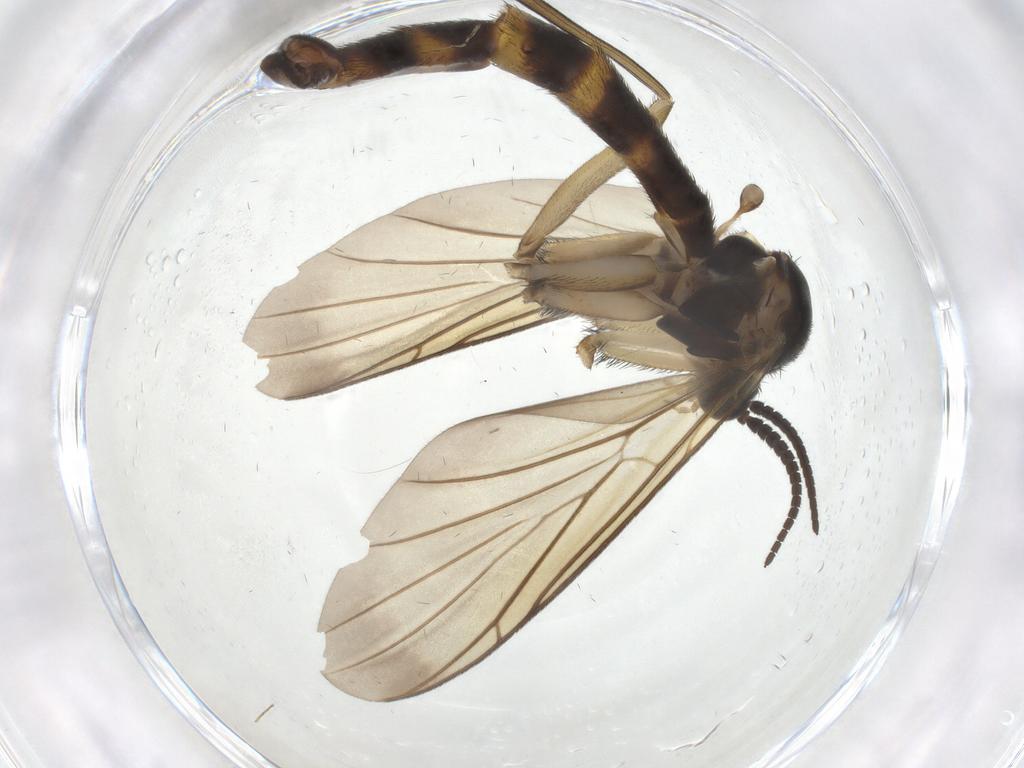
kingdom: Animalia
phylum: Arthropoda
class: Insecta
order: Diptera
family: Keroplatidae
